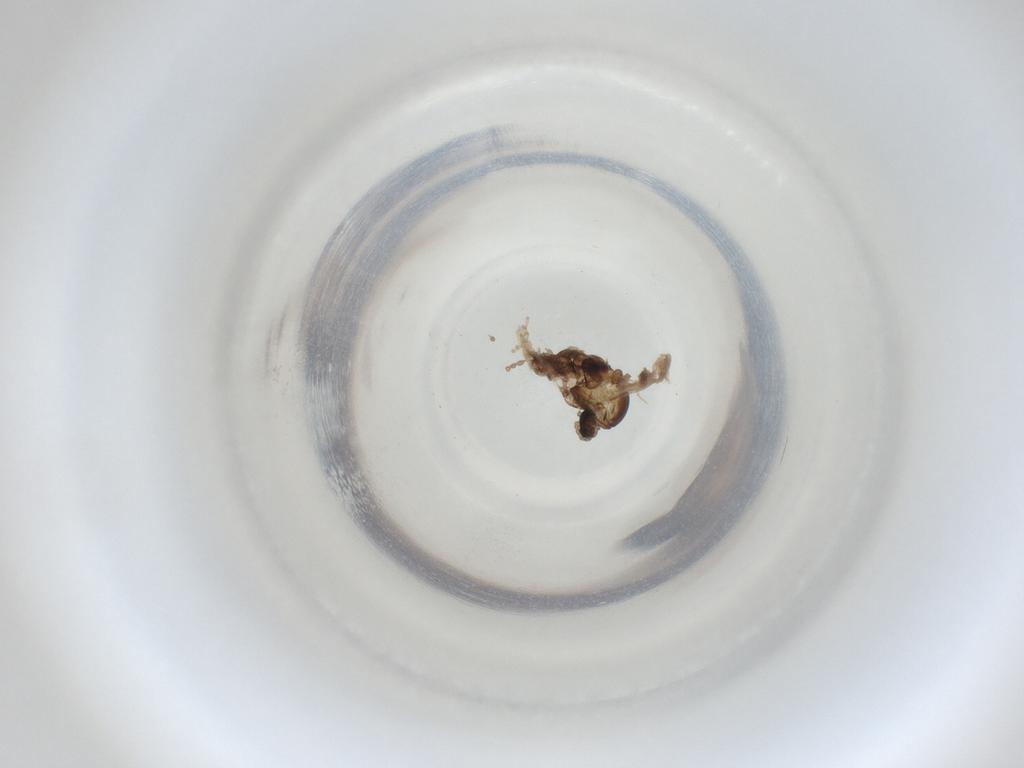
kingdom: Animalia
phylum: Arthropoda
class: Insecta
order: Diptera
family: Cecidomyiidae
